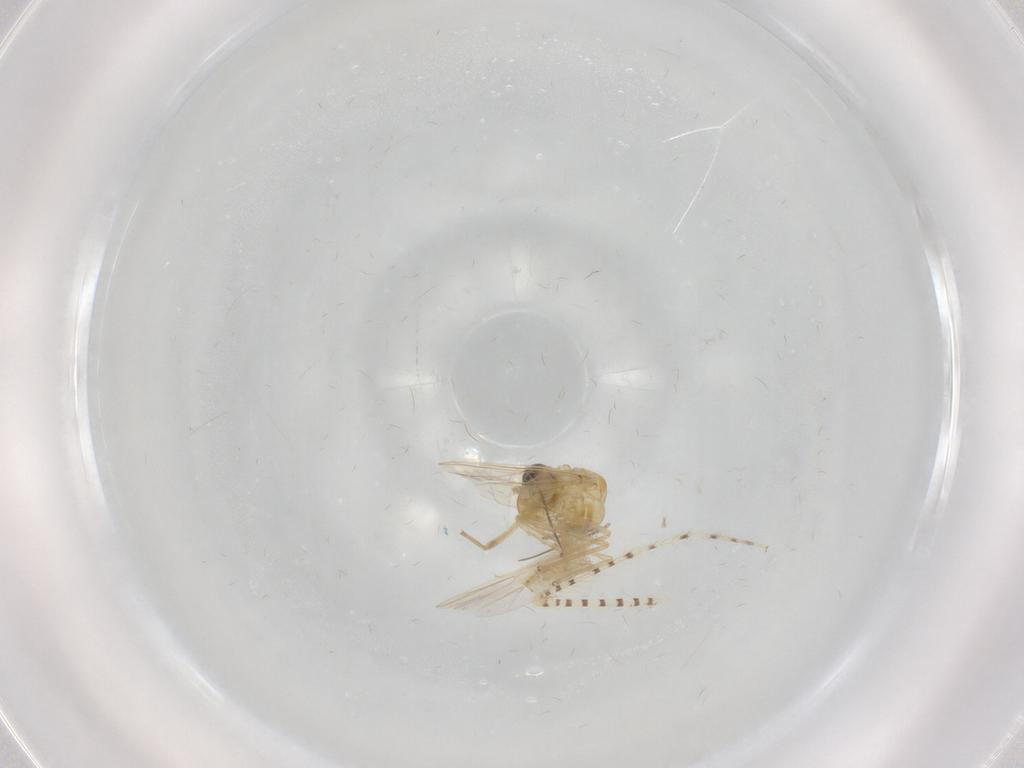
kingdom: Animalia
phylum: Arthropoda
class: Insecta
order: Diptera
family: Chaoboridae
